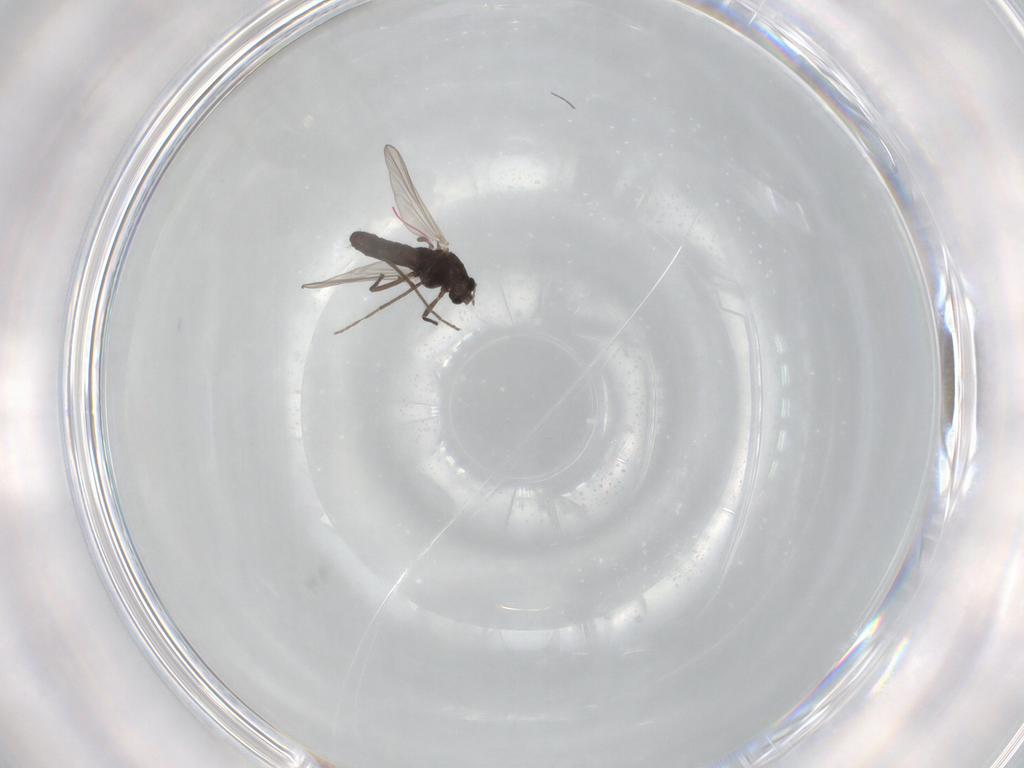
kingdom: Animalia
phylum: Arthropoda
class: Insecta
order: Diptera
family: Chironomidae
